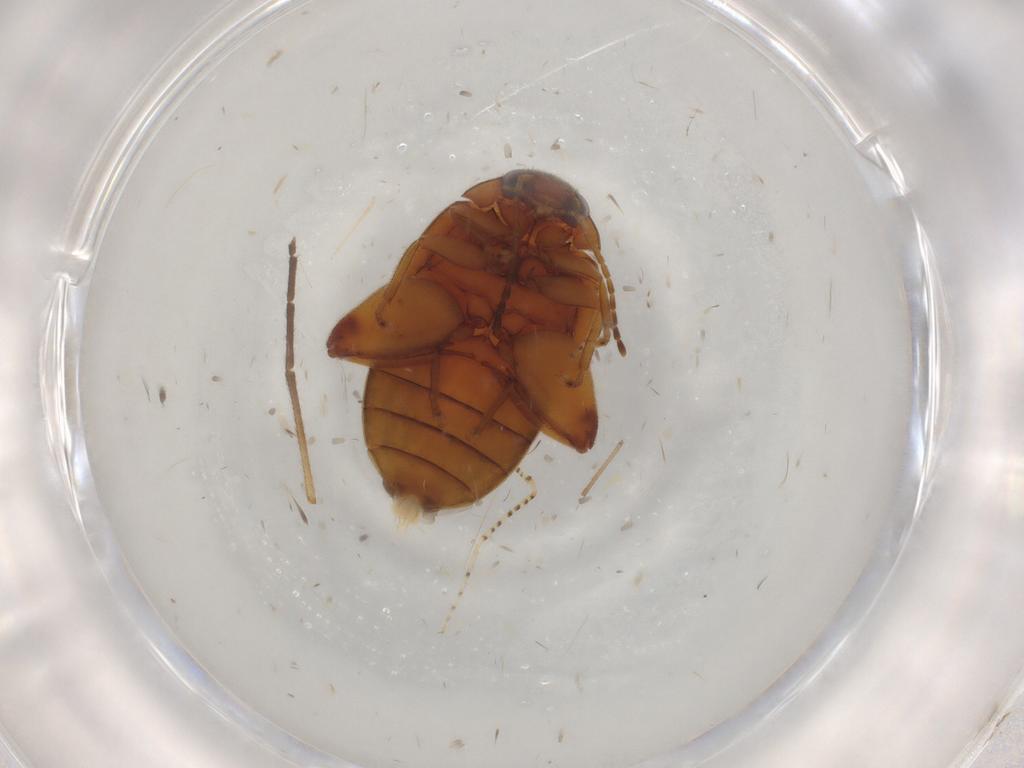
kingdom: Animalia
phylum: Arthropoda
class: Insecta
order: Coleoptera
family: Scirtidae
